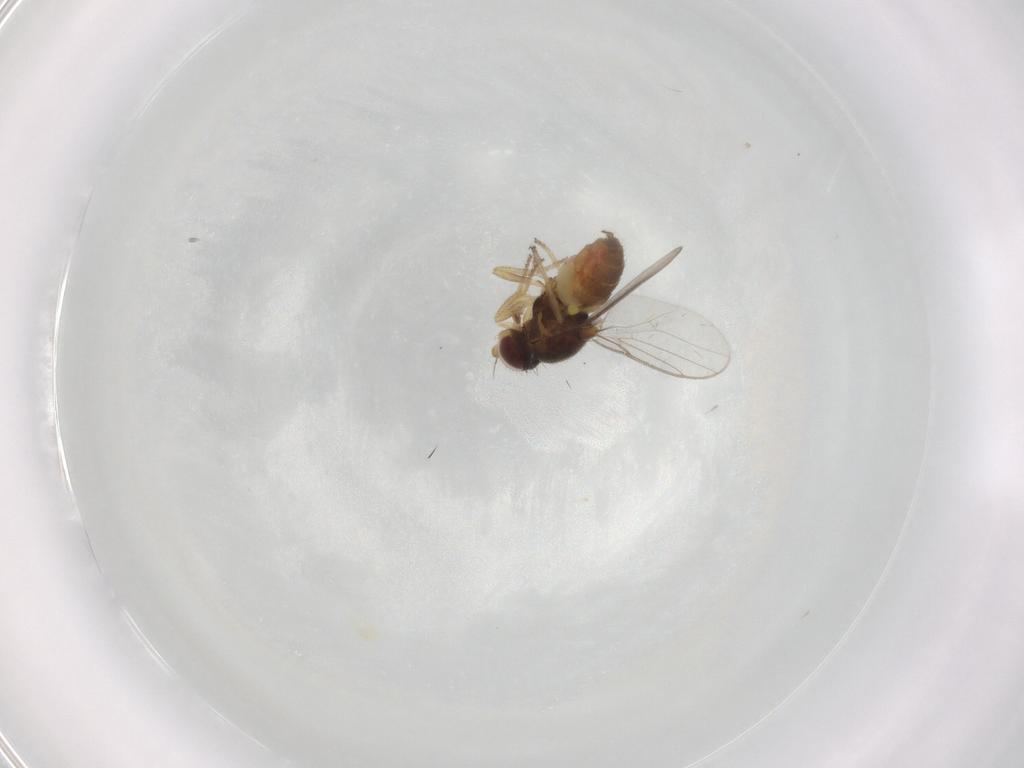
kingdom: Animalia
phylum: Arthropoda
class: Insecta
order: Diptera
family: Chloropidae
